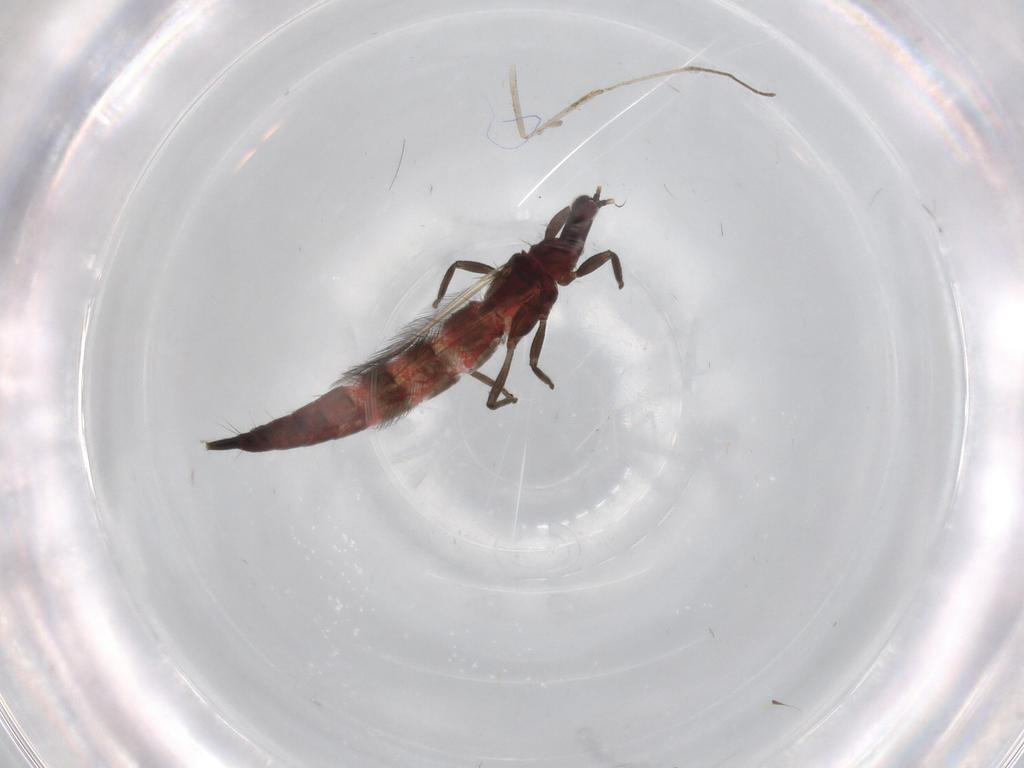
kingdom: Animalia
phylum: Arthropoda
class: Insecta
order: Thysanoptera
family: Phlaeothripidae
